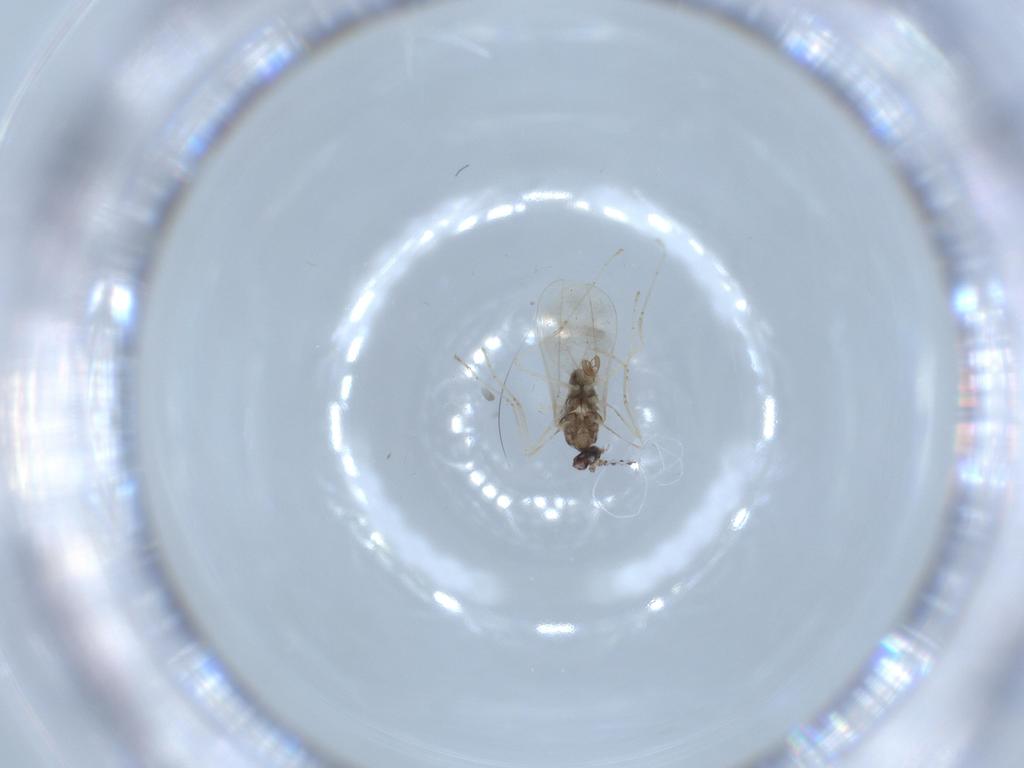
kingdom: Animalia
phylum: Arthropoda
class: Insecta
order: Diptera
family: Cecidomyiidae
